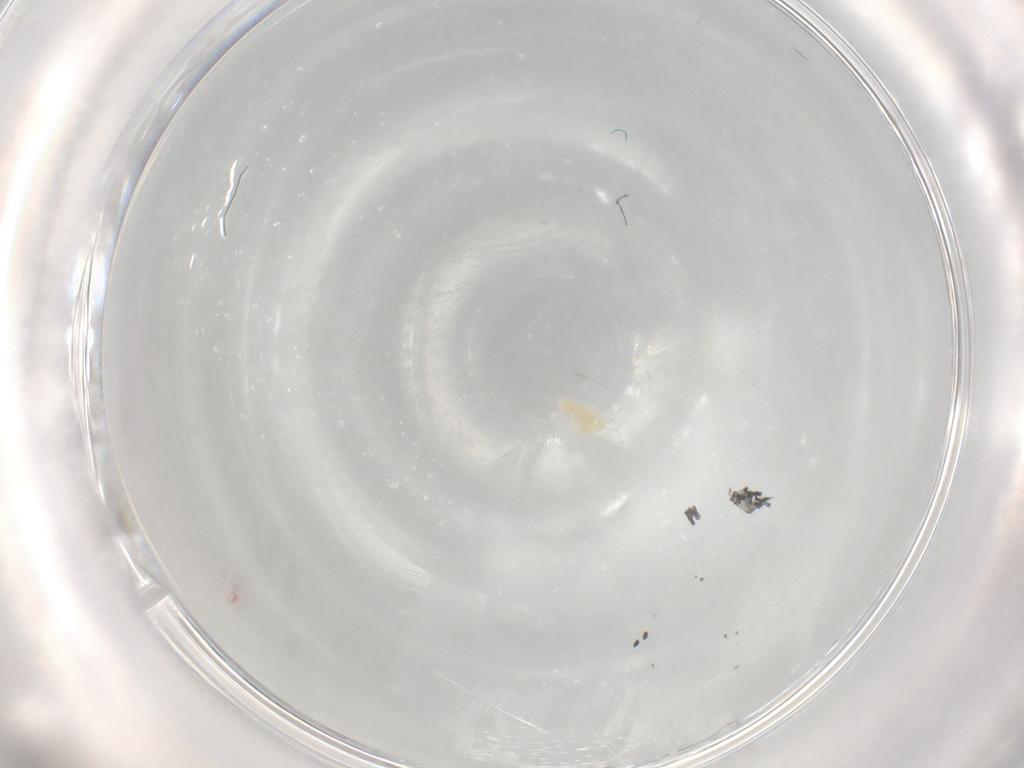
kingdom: Animalia
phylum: Arthropoda
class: Arachnida
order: Trombidiformes
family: Eupodidae
